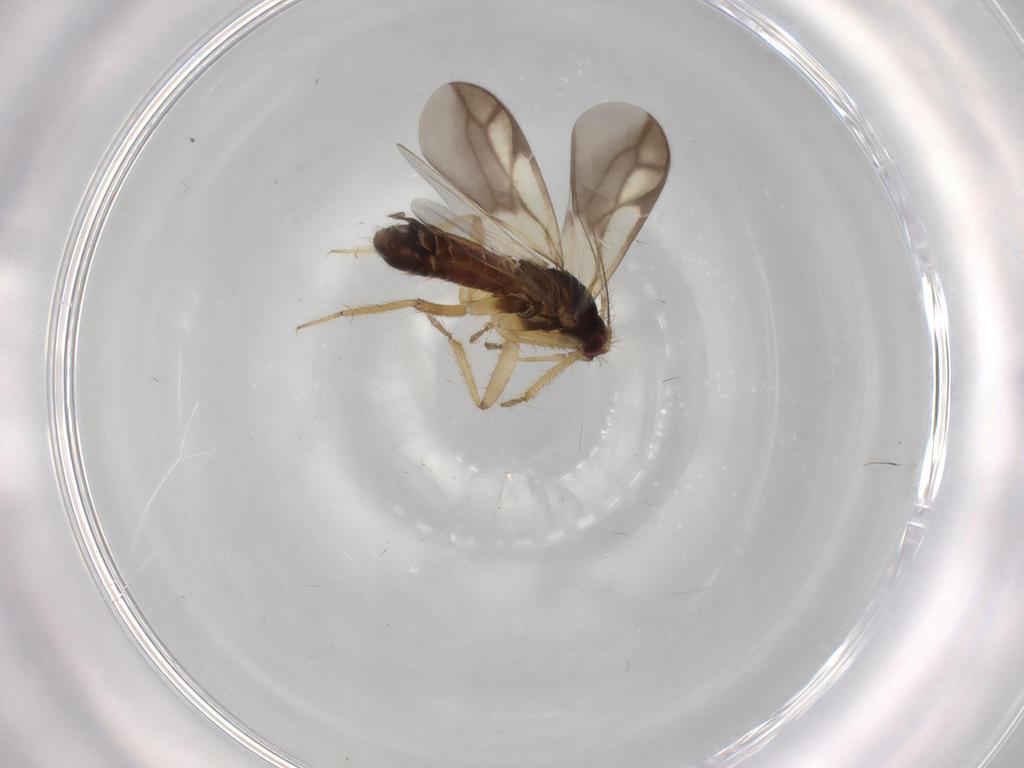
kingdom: Animalia
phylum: Arthropoda
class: Insecta
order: Hemiptera
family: Ceratocombidae
